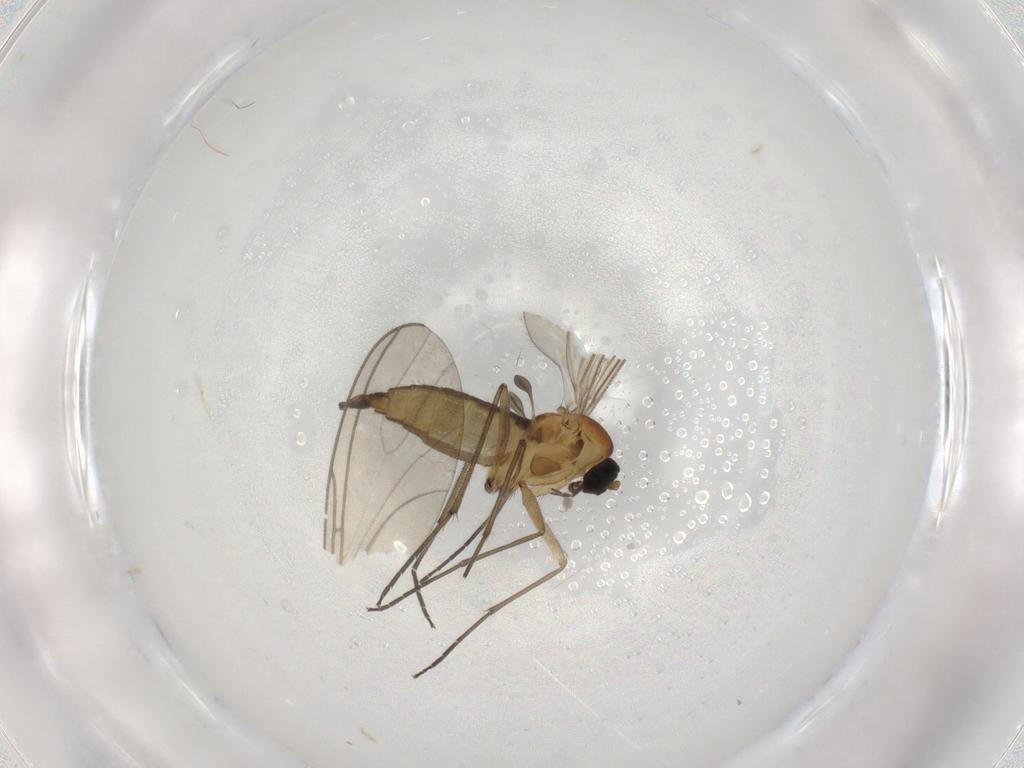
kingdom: Animalia
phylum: Arthropoda
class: Insecta
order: Diptera
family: Sciaridae
